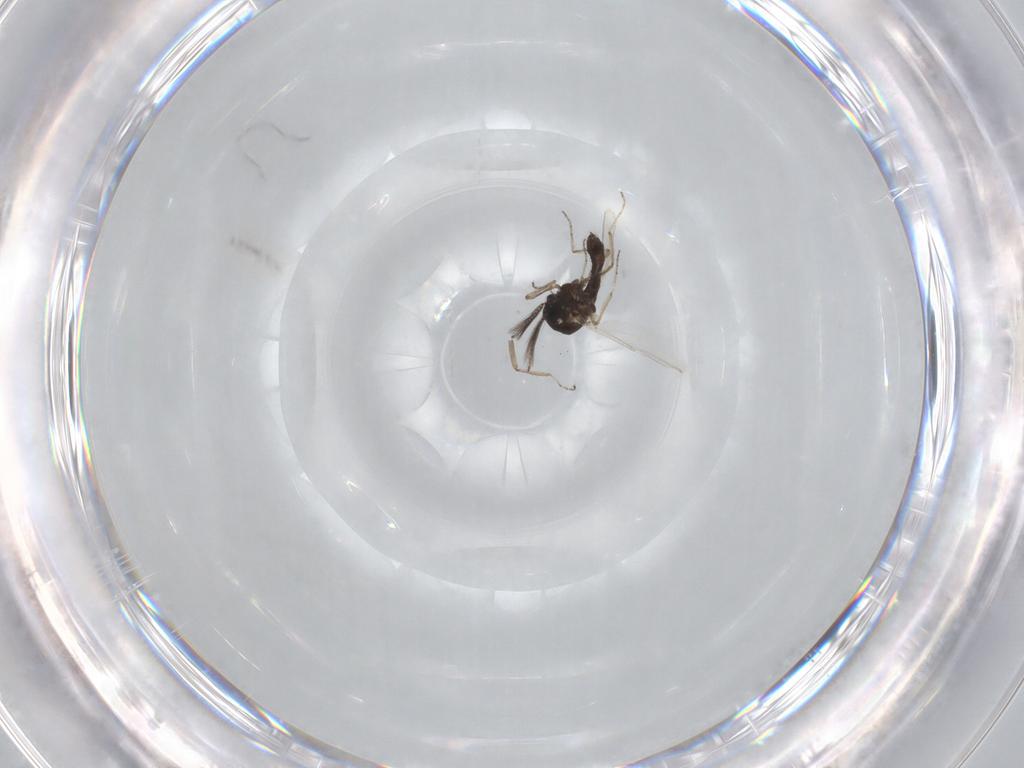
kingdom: Animalia
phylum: Arthropoda
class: Insecta
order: Diptera
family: Ceratopogonidae
